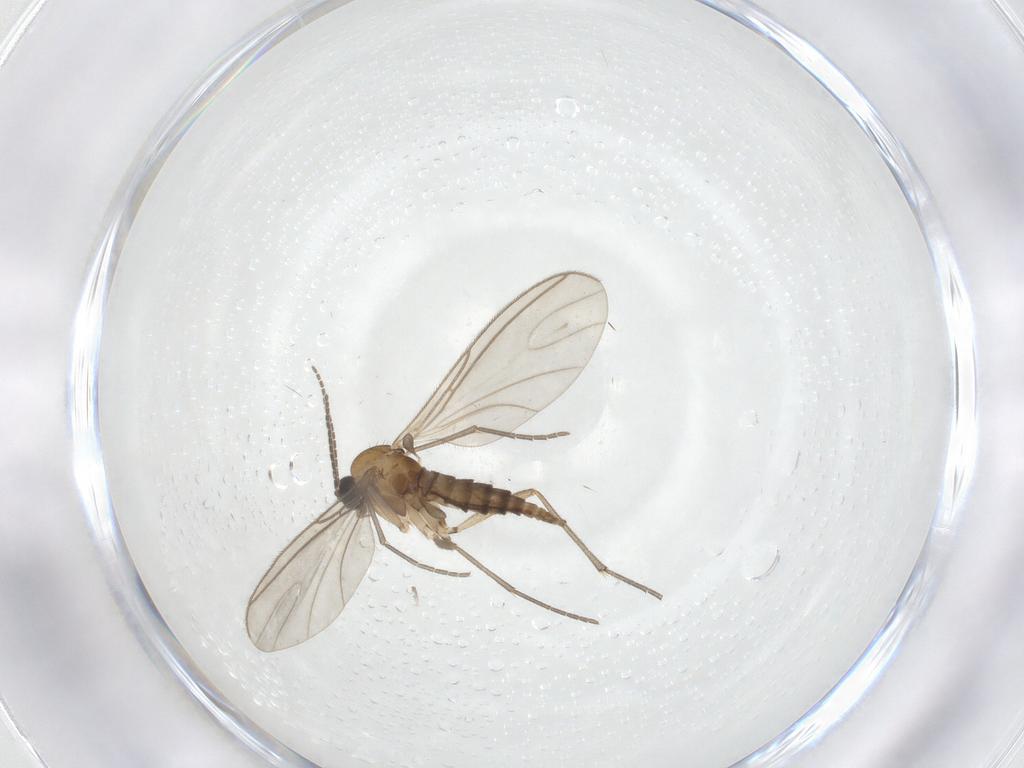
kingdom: Animalia
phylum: Arthropoda
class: Insecta
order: Diptera
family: Sciaridae
